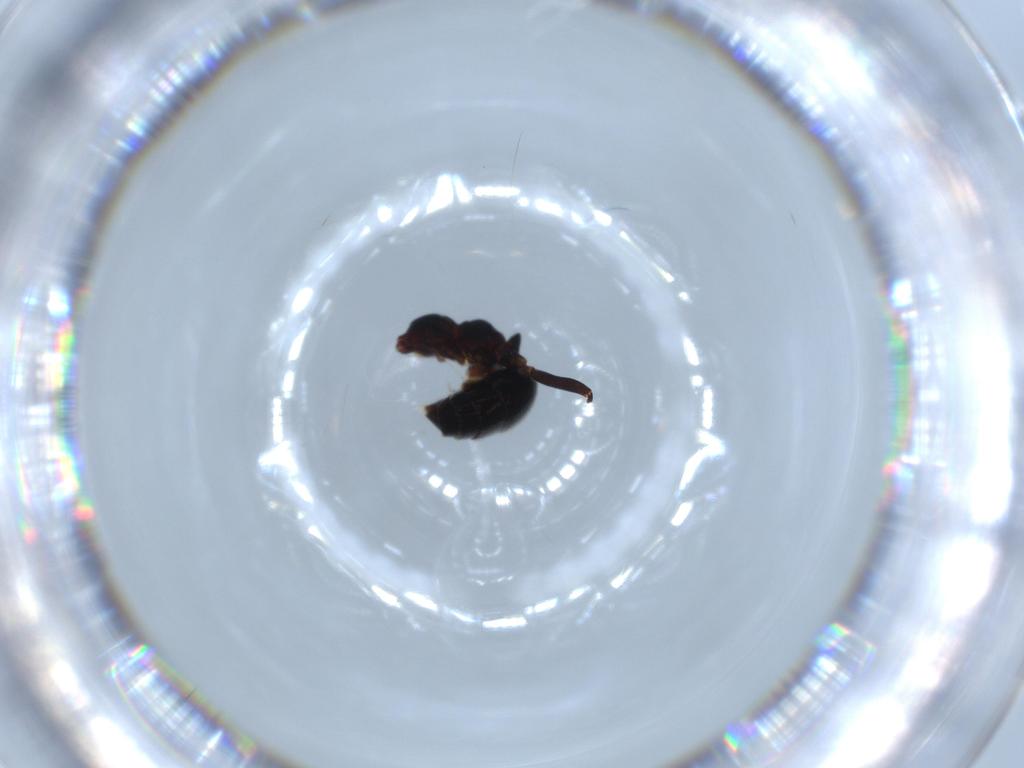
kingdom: Animalia
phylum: Arthropoda
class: Insecta
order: Hymenoptera
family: Formicidae
